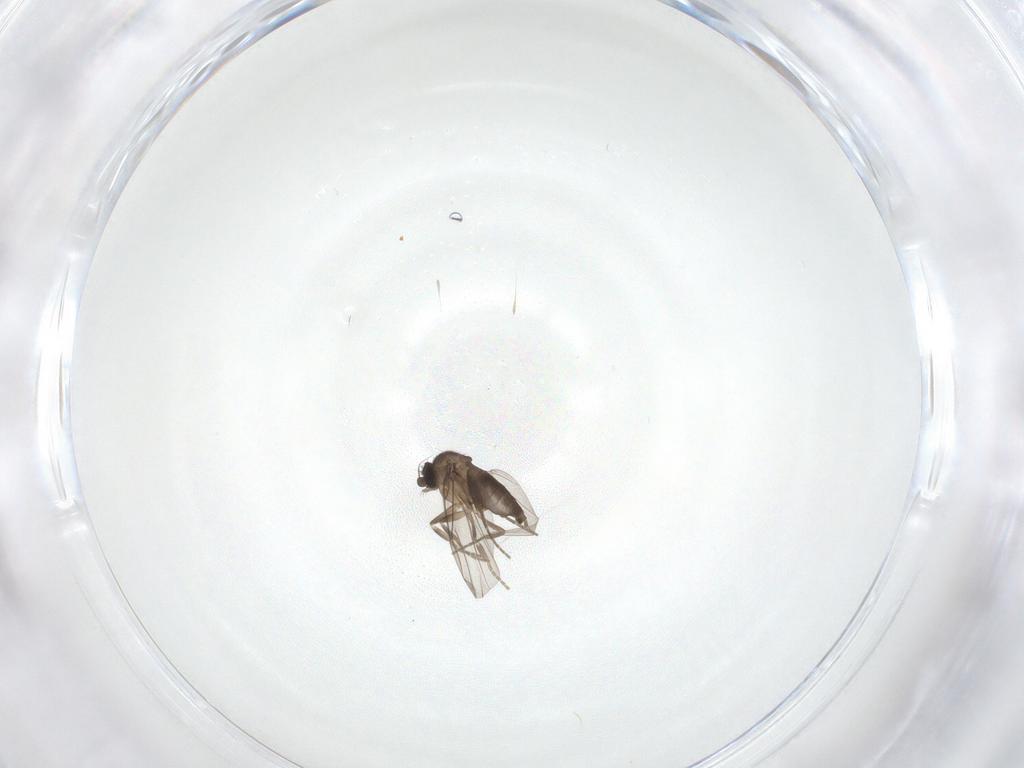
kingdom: Animalia
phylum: Arthropoda
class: Insecta
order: Diptera
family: Phoridae
